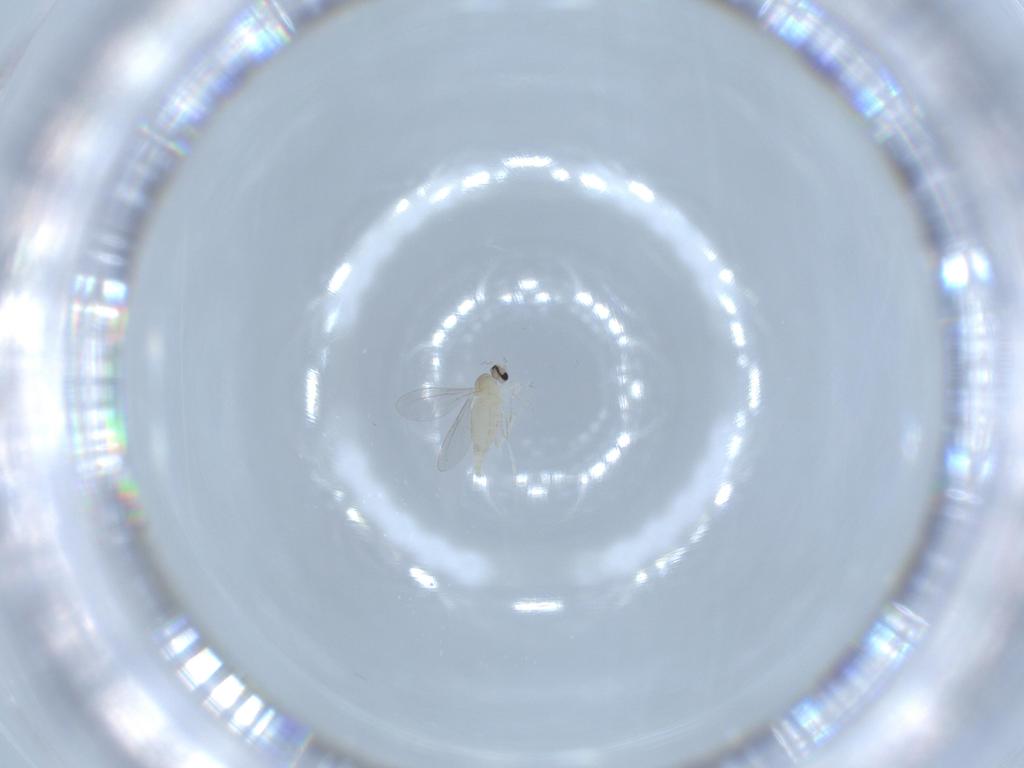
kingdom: Animalia
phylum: Arthropoda
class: Insecta
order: Diptera
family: Cecidomyiidae
